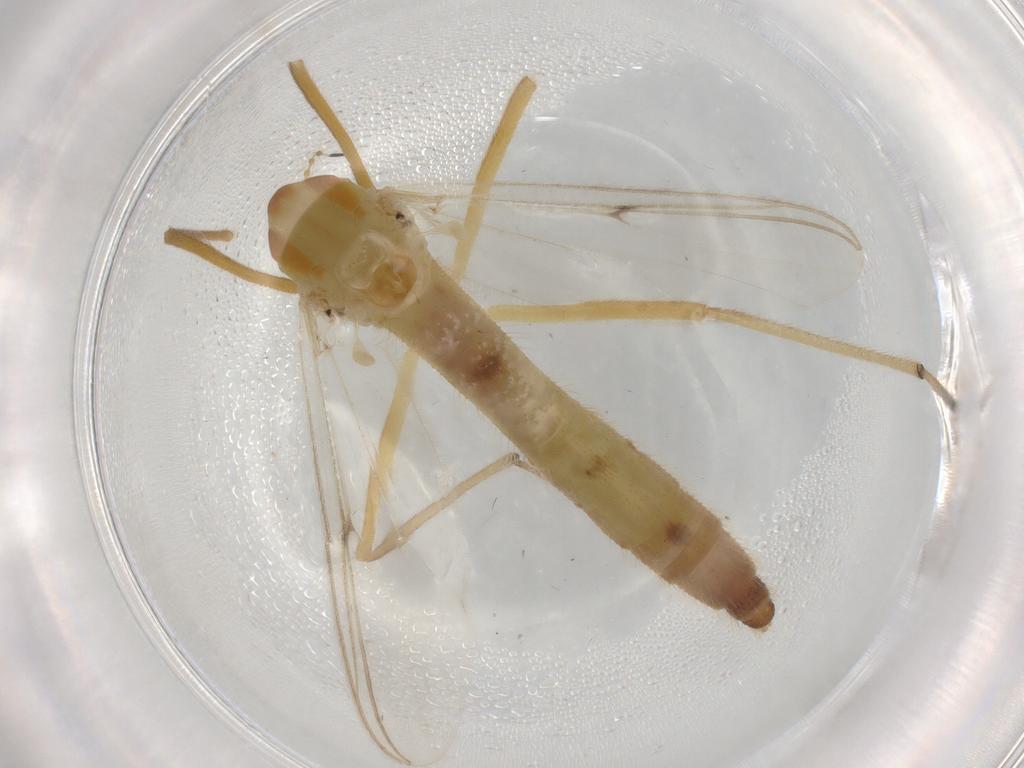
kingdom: Animalia
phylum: Arthropoda
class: Insecta
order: Diptera
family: Chironomidae
